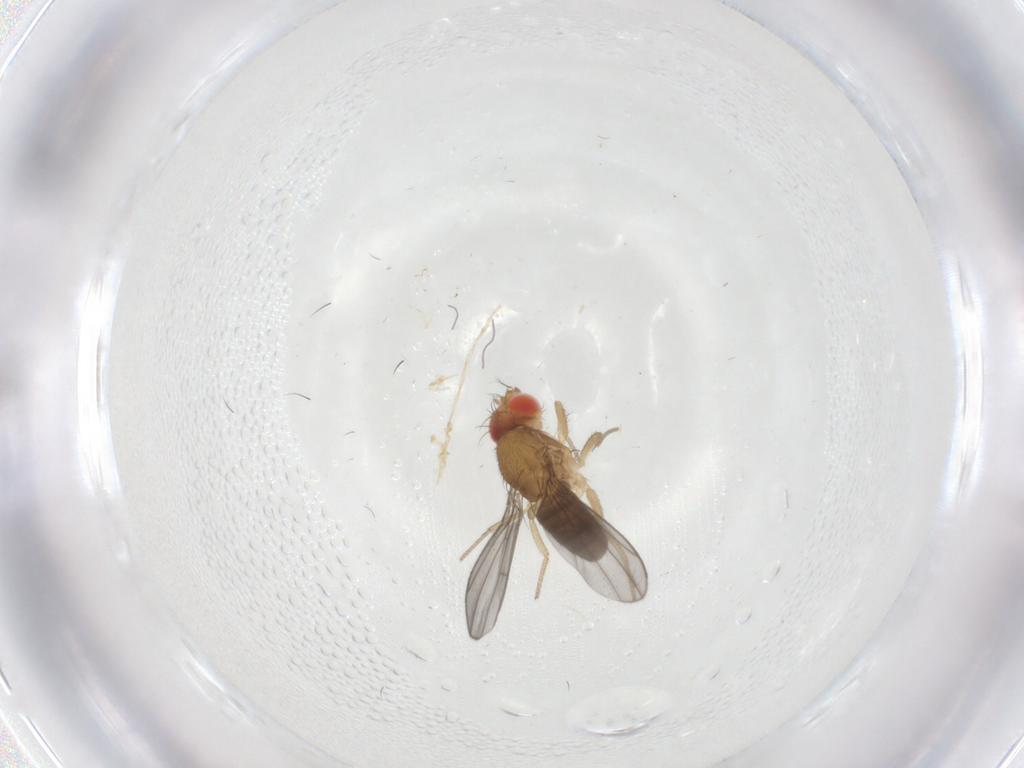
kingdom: Animalia
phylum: Arthropoda
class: Insecta
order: Diptera
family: Drosophilidae
